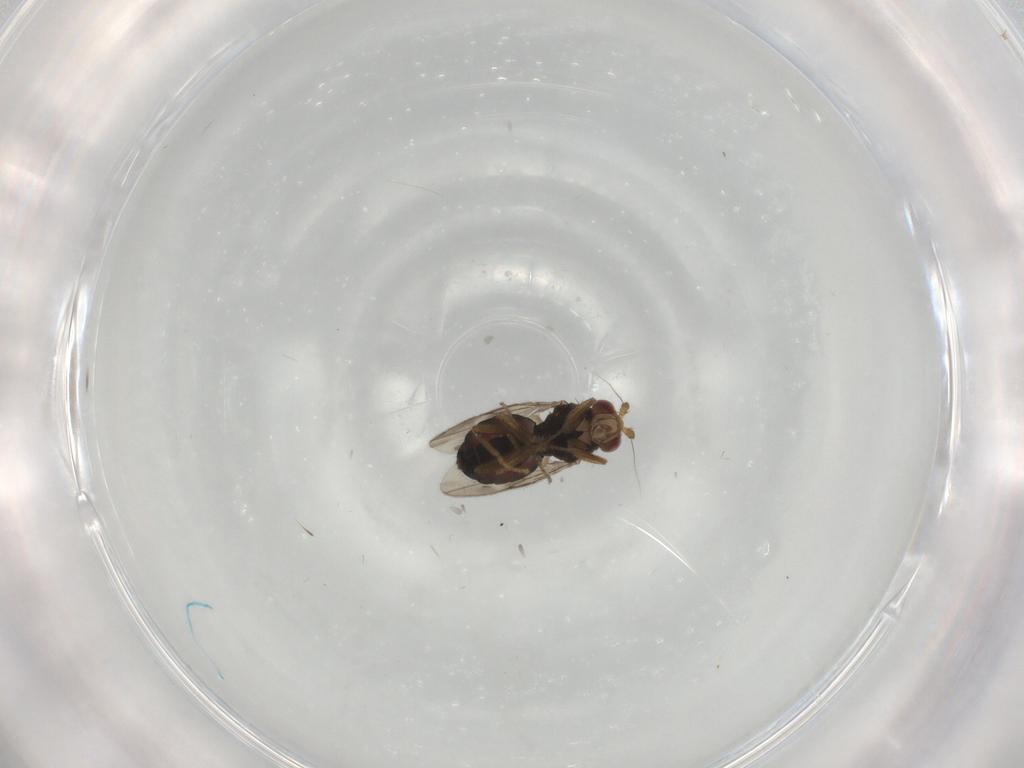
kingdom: Animalia
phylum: Arthropoda
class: Insecta
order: Diptera
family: Sphaeroceridae
